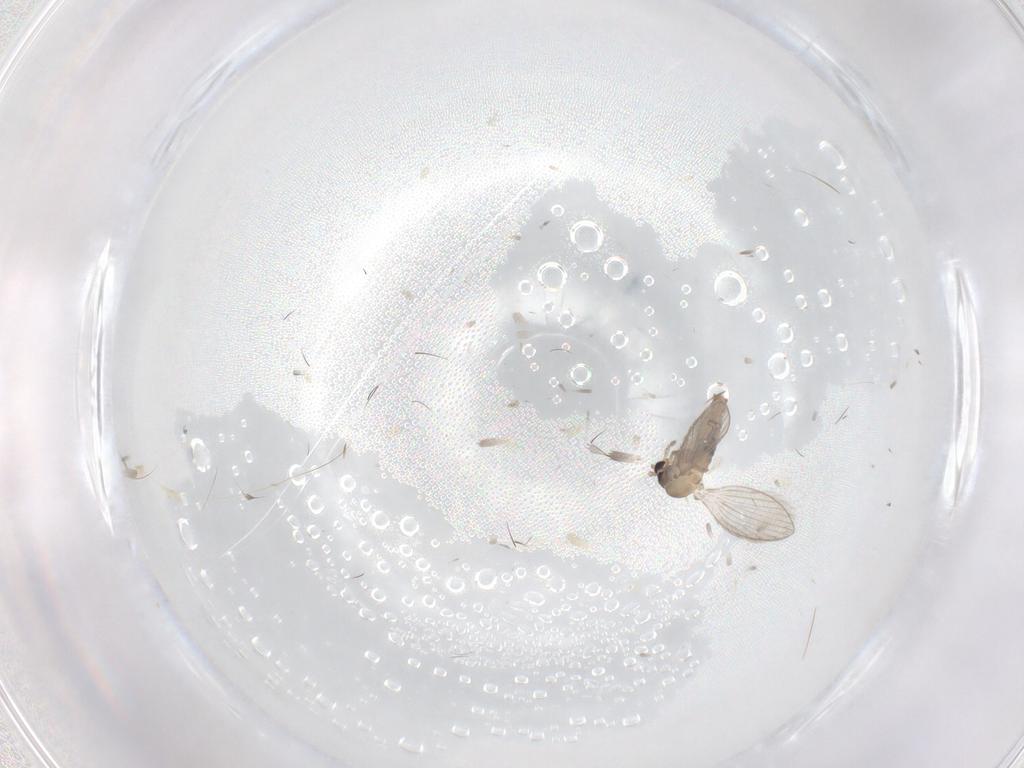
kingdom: Animalia
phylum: Arthropoda
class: Insecta
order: Diptera
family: Psychodidae
